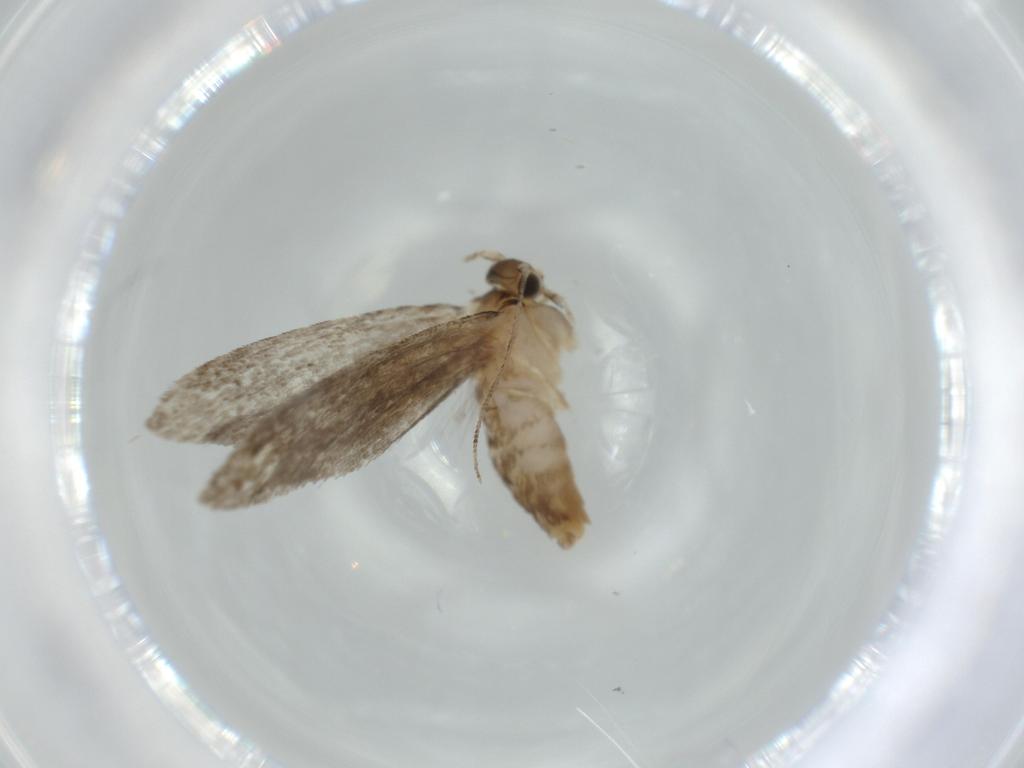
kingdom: Animalia
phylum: Arthropoda
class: Insecta
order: Lepidoptera
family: Tineidae
